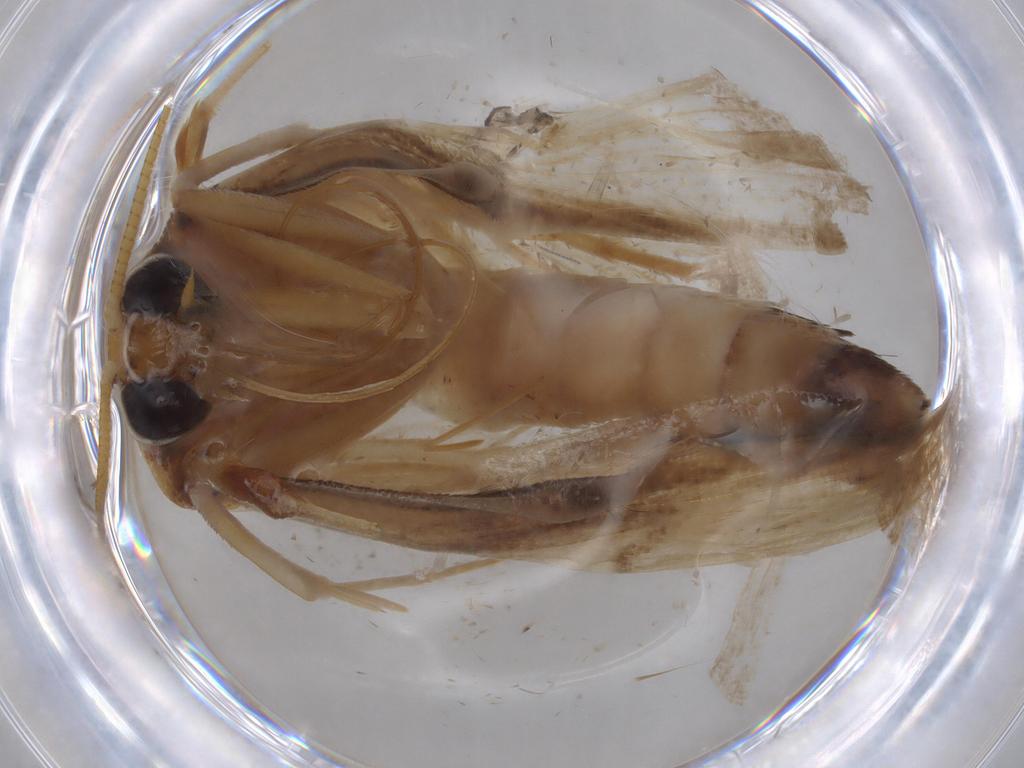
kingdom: Animalia
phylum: Arthropoda
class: Insecta
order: Lepidoptera
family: Crambidae
